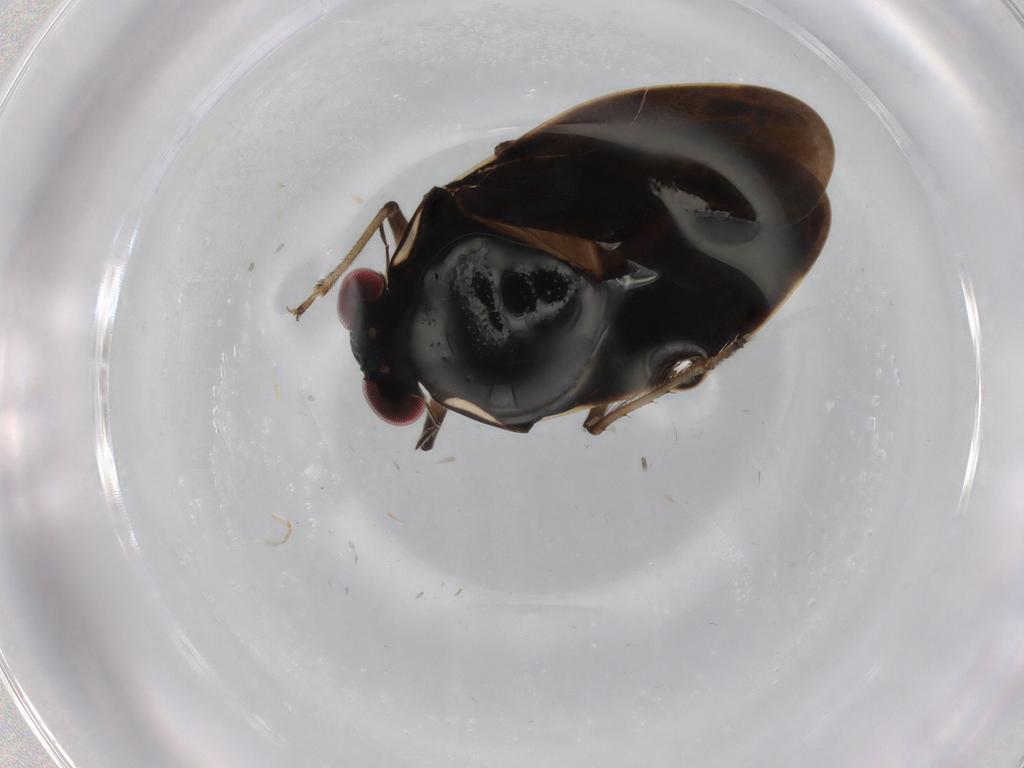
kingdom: Animalia
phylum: Arthropoda
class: Insecta
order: Hemiptera
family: Ochteridae
